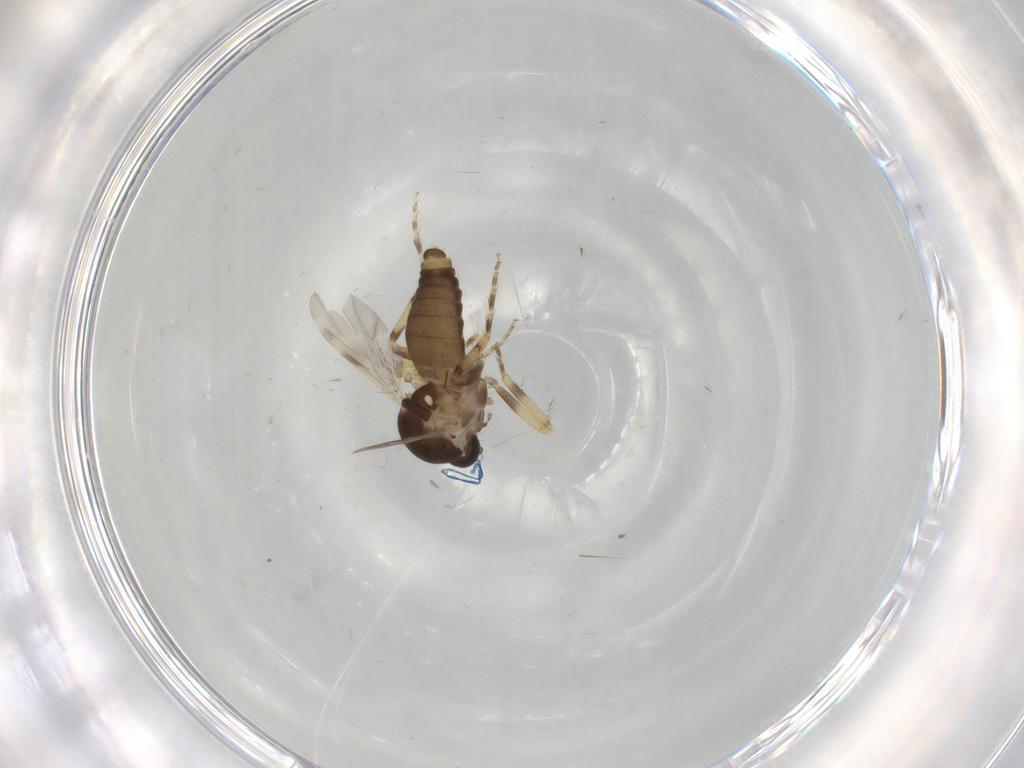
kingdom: Animalia
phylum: Arthropoda
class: Insecta
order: Diptera
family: Ceratopogonidae
